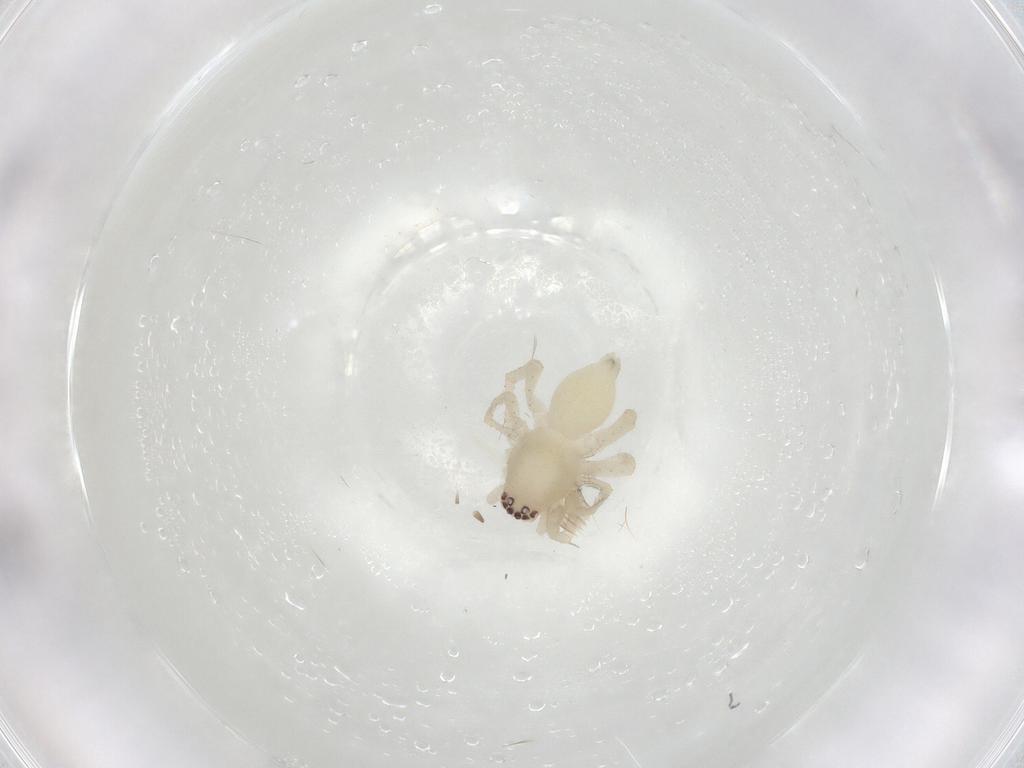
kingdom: Animalia
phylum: Arthropoda
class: Arachnida
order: Araneae
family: Clubionidae
